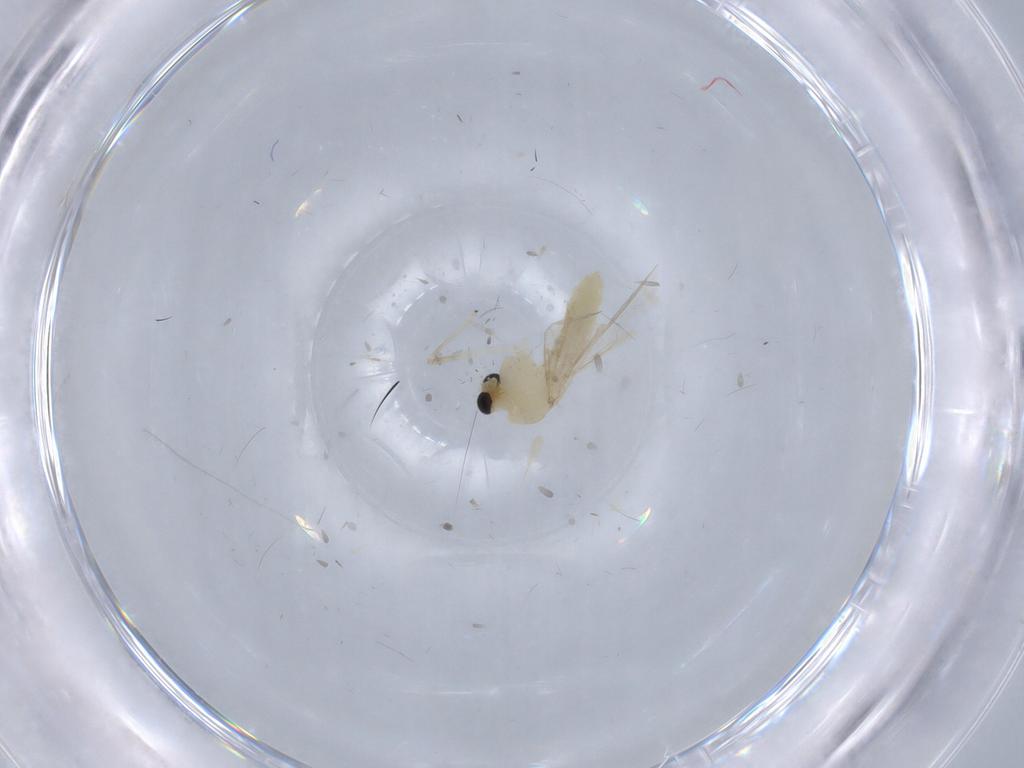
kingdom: Animalia
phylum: Arthropoda
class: Insecta
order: Diptera
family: Chironomidae
